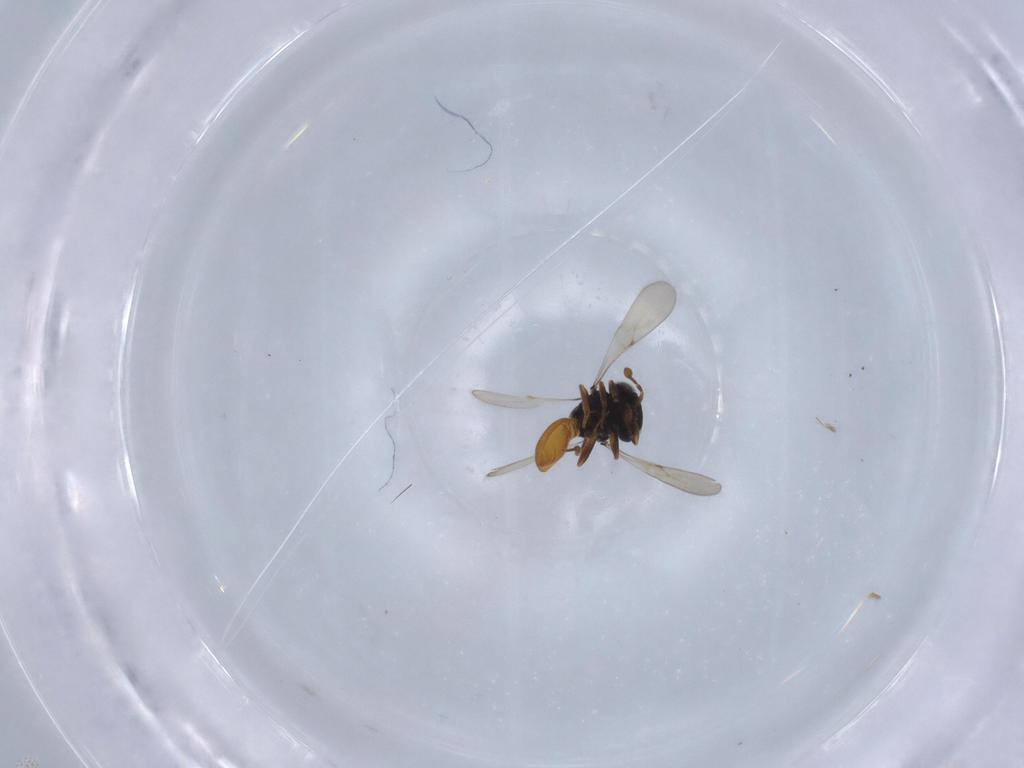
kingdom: Animalia
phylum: Arthropoda
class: Insecta
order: Hymenoptera
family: Scelionidae
